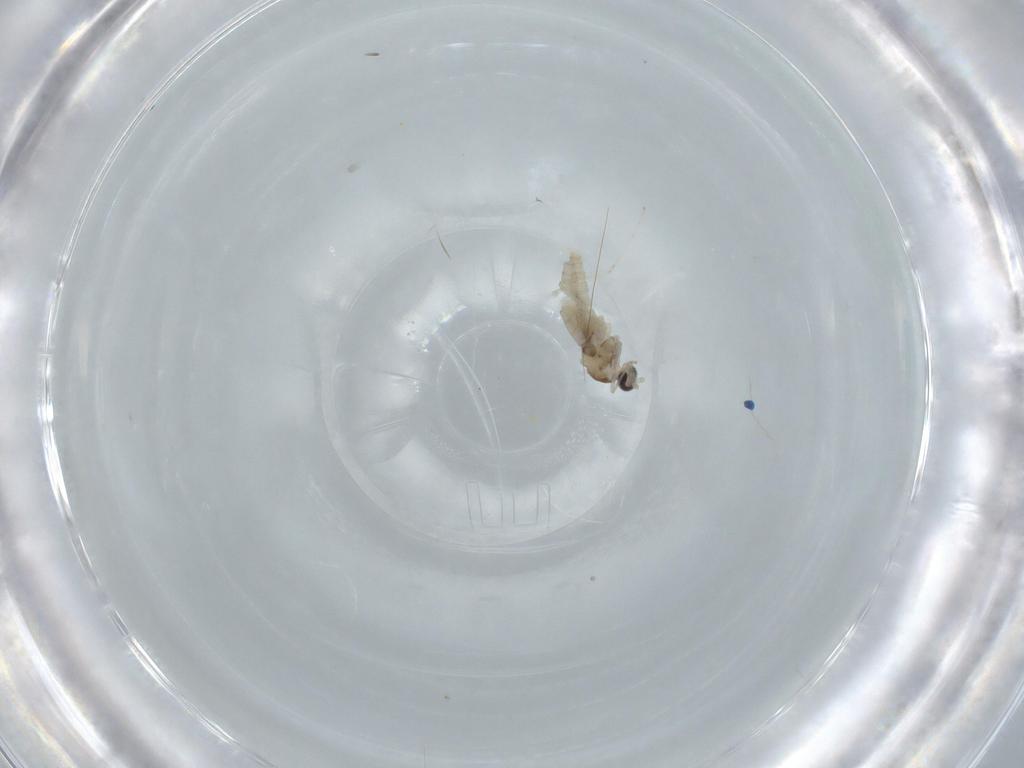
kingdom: Animalia
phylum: Arthropoda
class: Insecta
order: Diptera
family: Cecidomyiidae
